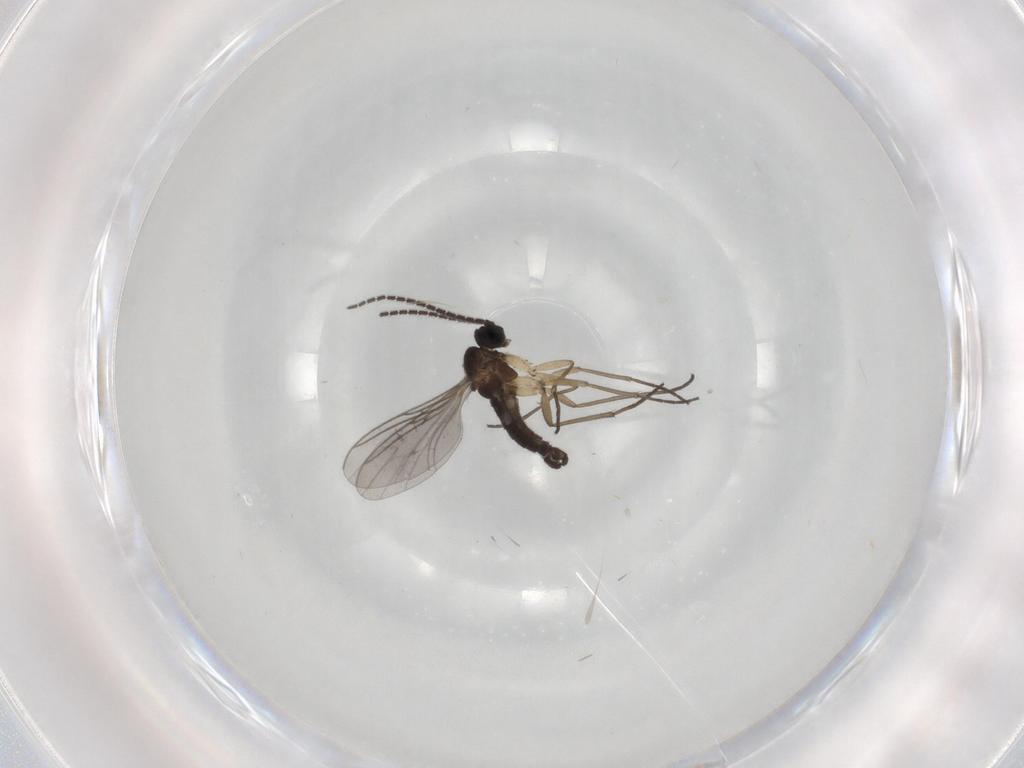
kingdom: Animalia
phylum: Arthropoda
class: Insecta
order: Diptera
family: Sciaridae
